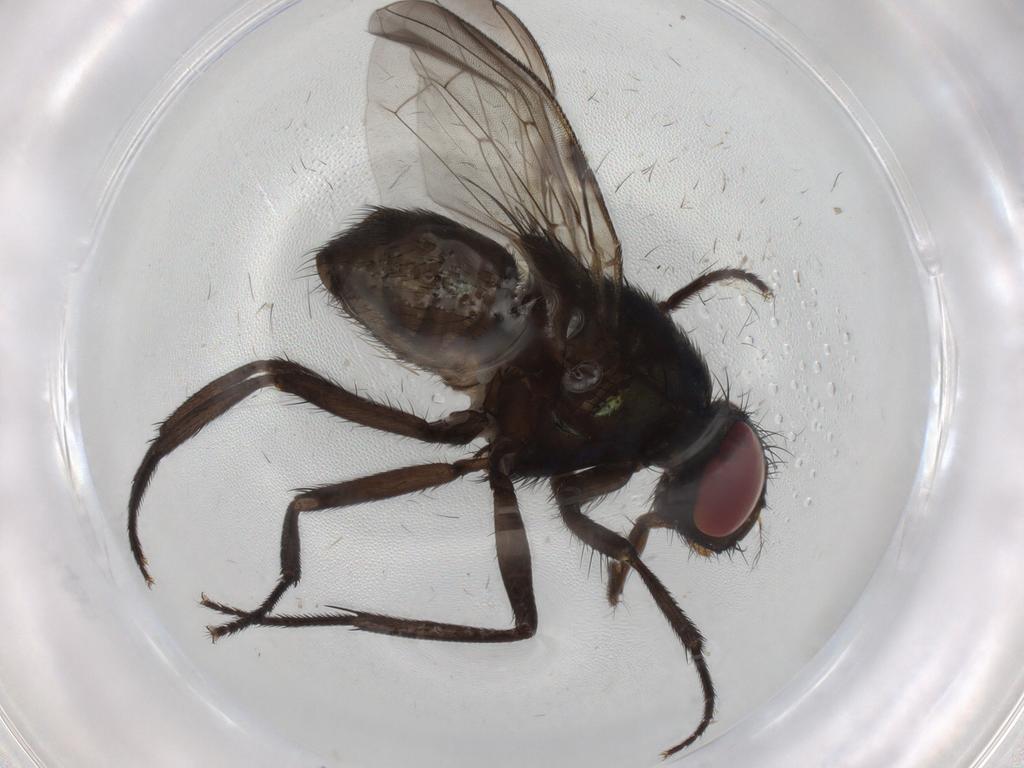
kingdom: Animalia
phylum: Arthropoda
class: Insecta
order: Diptera
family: Muscidae
